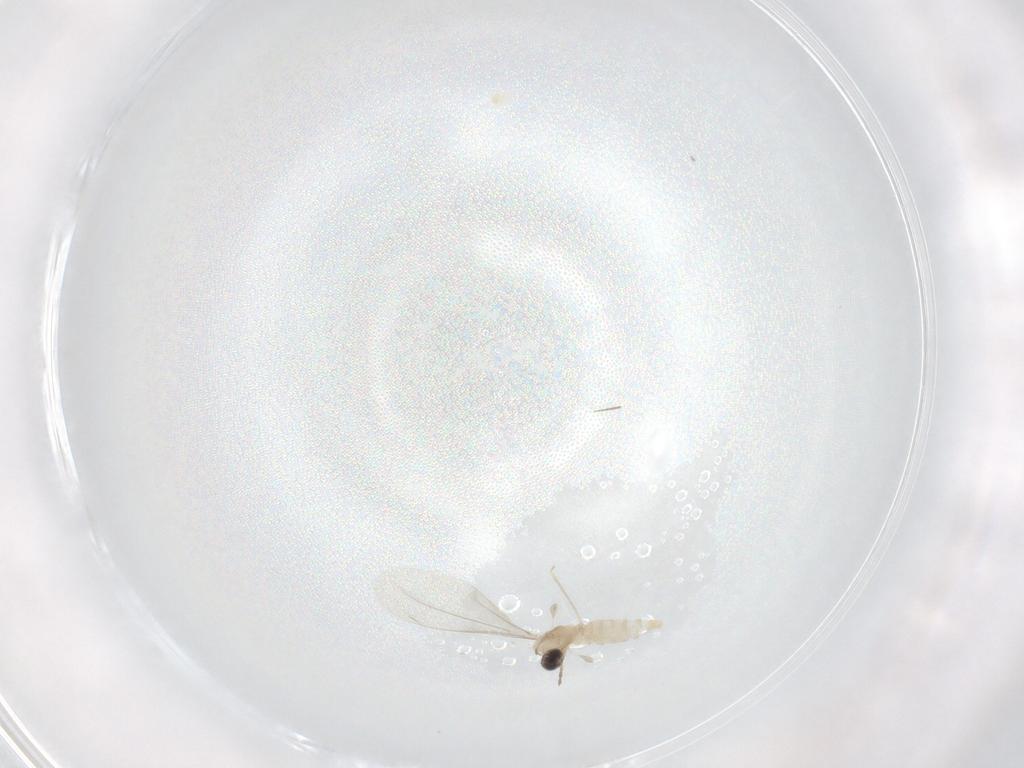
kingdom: Animalia
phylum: Arthropoda
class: Insecta
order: Diptera
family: Cecidomyiidae
